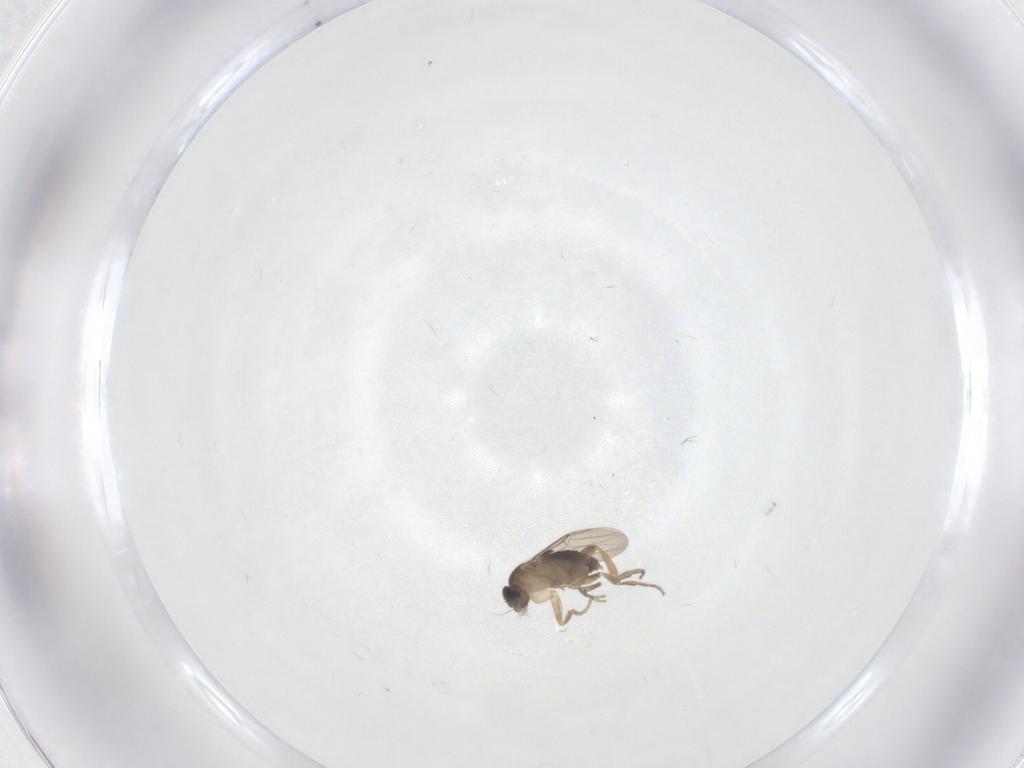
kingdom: Animalia
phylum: Arthropoda
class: Insecta
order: Diptera
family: Phoridae
